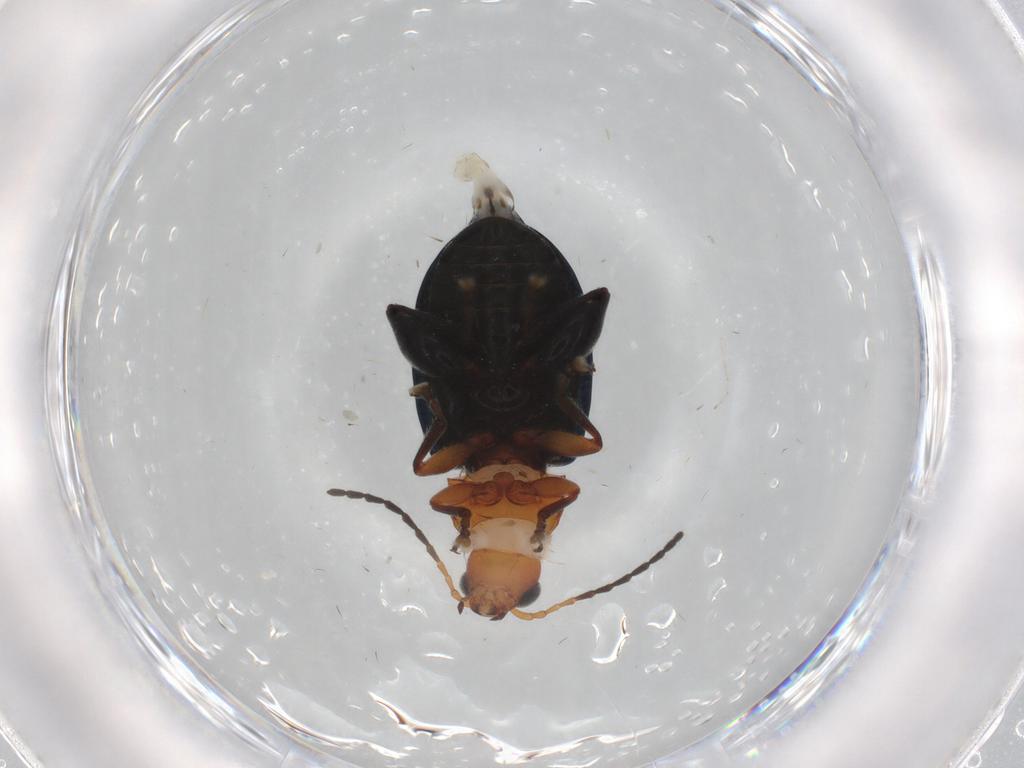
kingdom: Animalia
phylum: Arthropoda
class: Insecta
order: Coleoptera
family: Chrysomelidae
